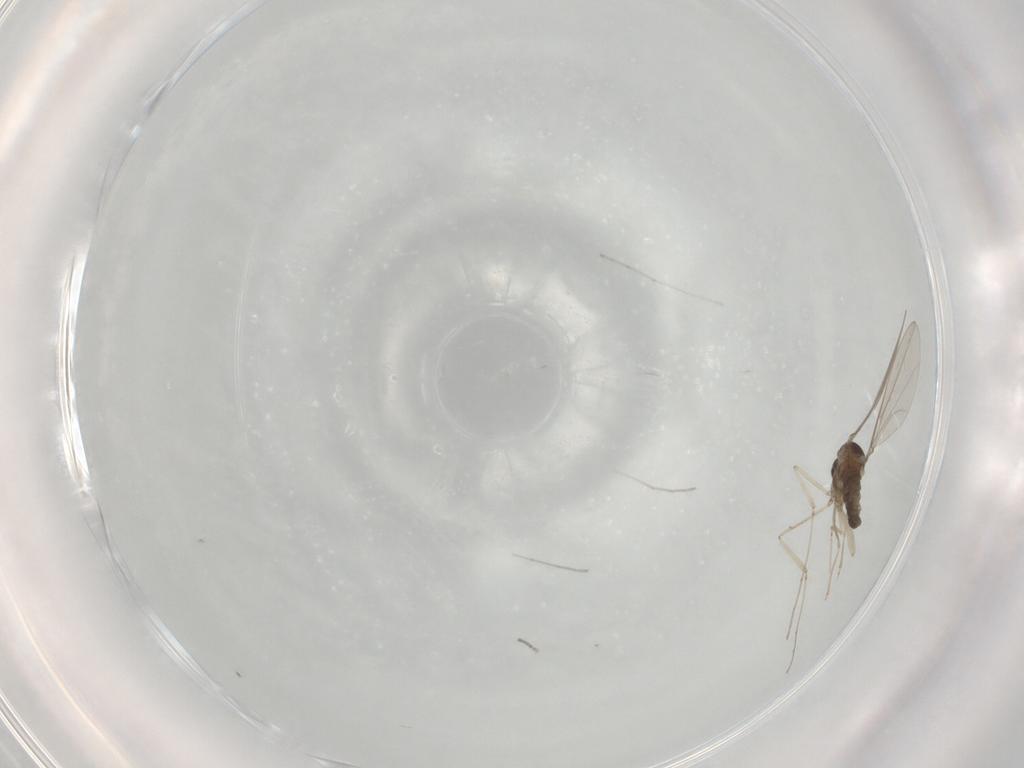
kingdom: Animalia
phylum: Arthropoda
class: Insecta
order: Diptera
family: Cecidomyiidae
